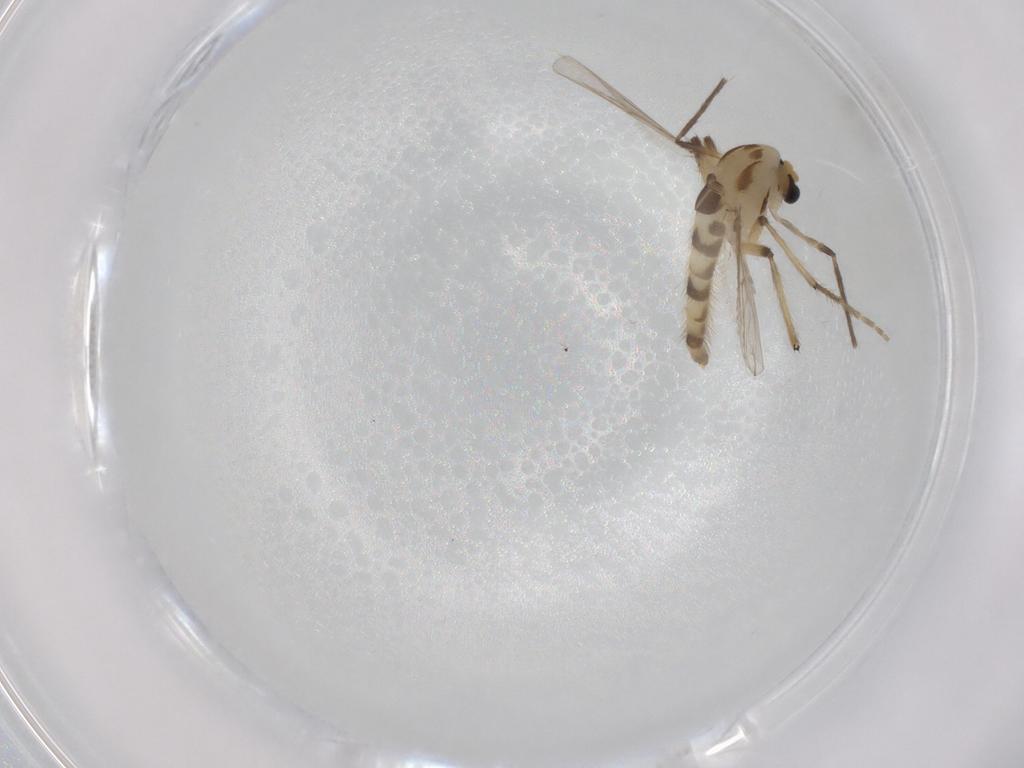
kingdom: Animalia
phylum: Arthropoda
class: Insecta
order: Diptera
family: Chironomidae
